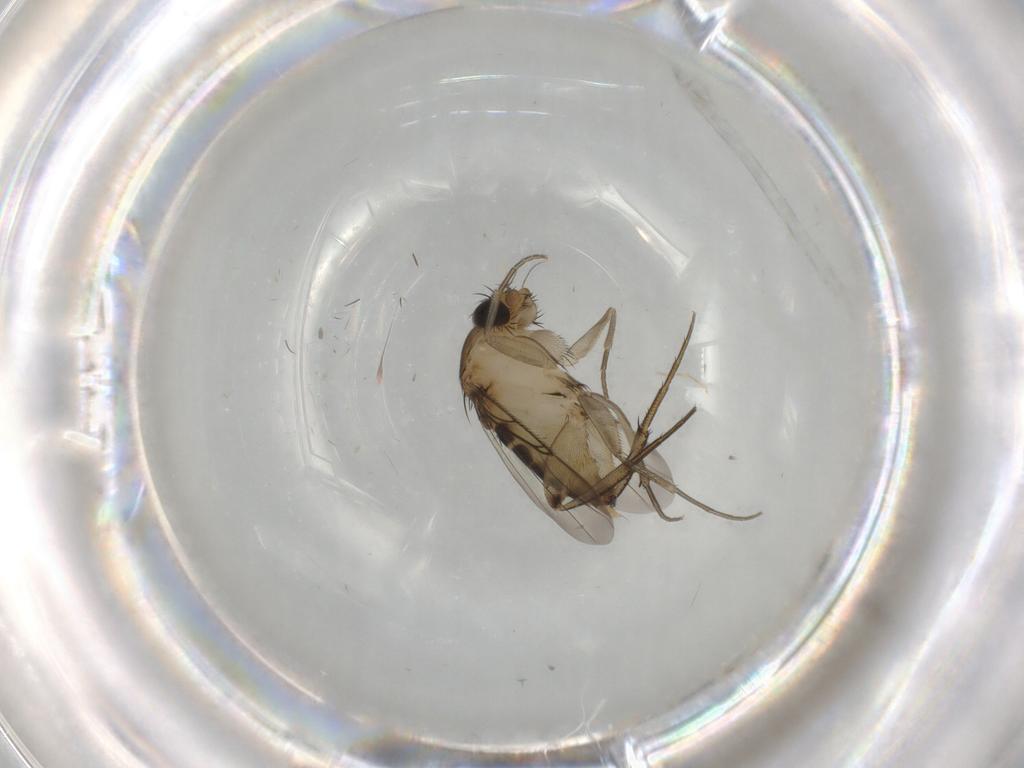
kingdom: Animalia
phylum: Arthropoda
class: Insecta
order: Diptera
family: Phoridae
